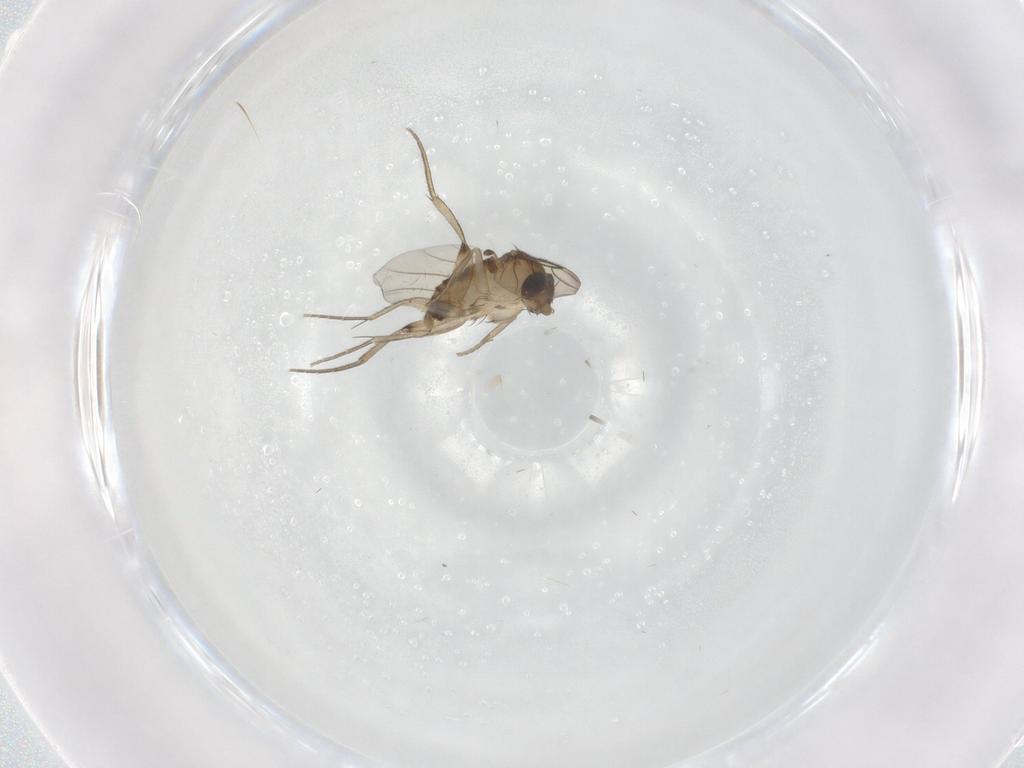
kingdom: Animalia
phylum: Arthropoda
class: Insecta
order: Diptera
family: Phoridae
